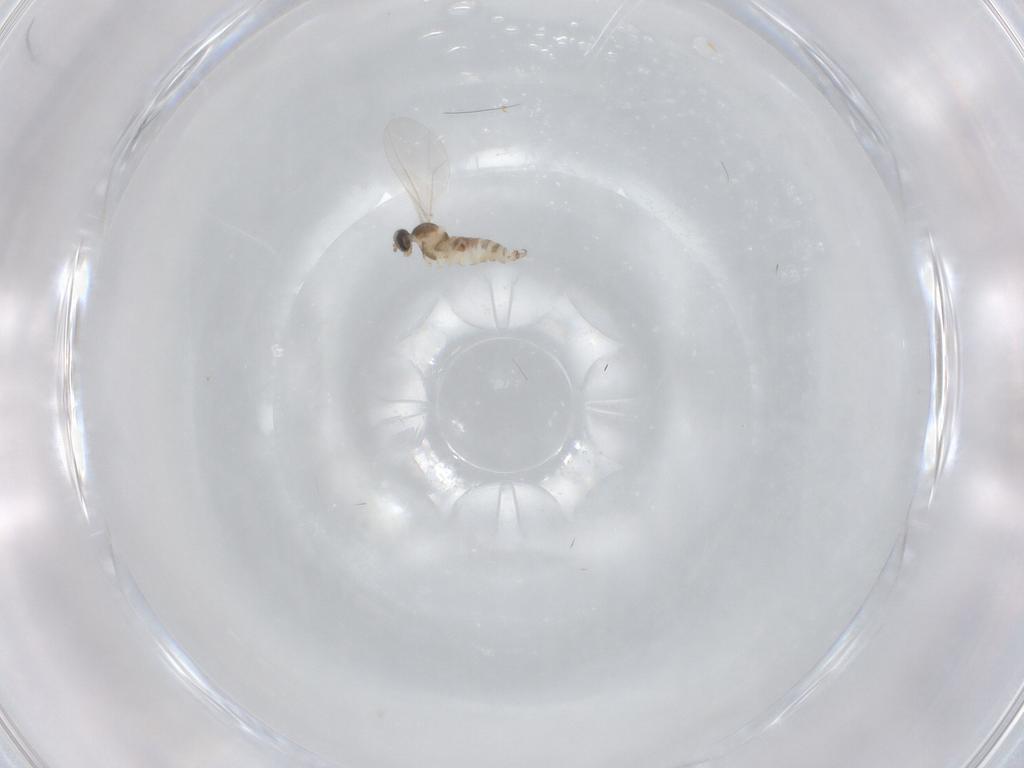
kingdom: Animalia
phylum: Arthropoda
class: Insecta
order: Diptera
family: Cecidomyiidae
